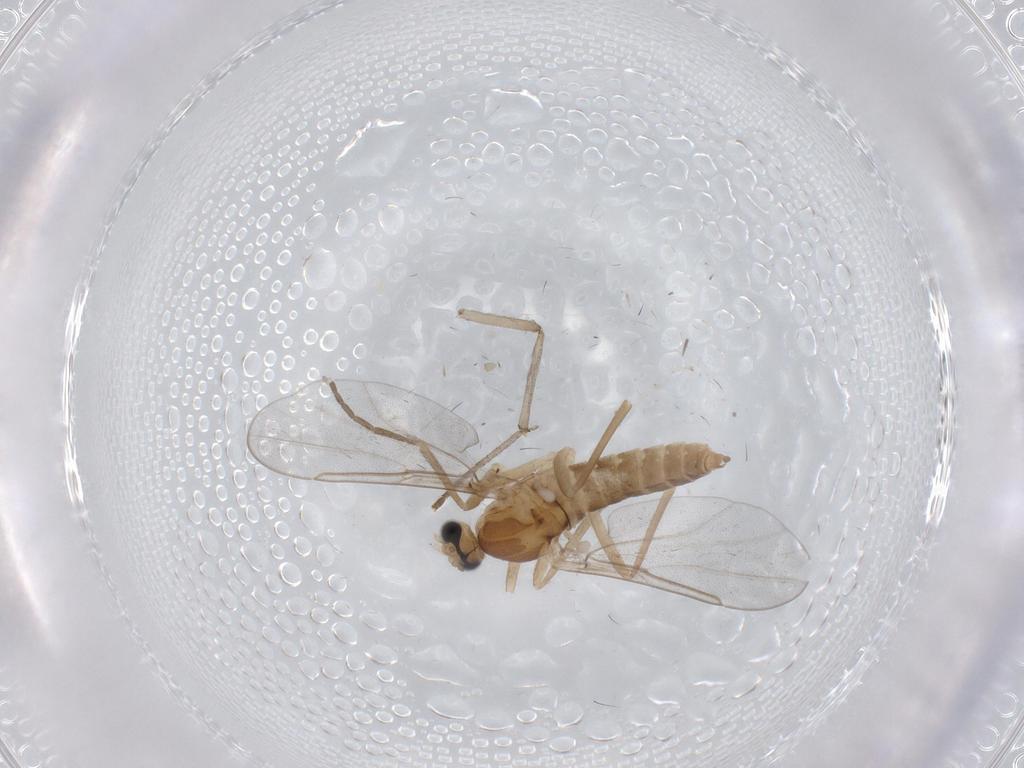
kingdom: Animalia
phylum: Arthropoda
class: Insecta
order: Diptera
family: Psychodidae
